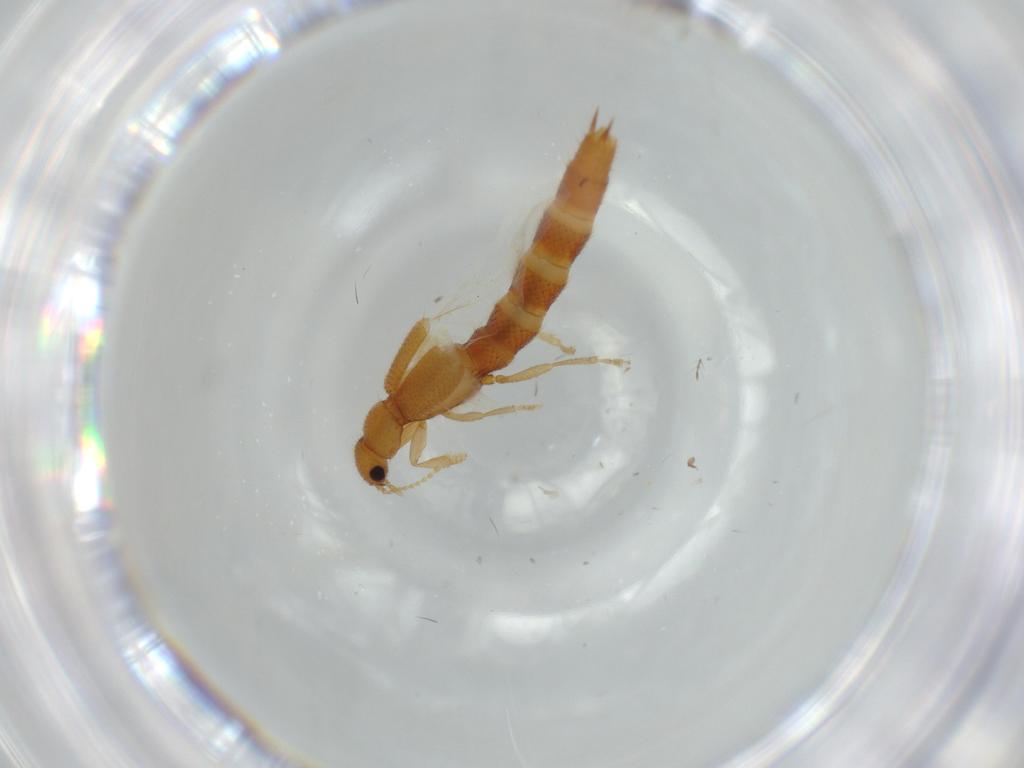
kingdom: Animalia
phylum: Arthropoda
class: Insecta
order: Coleoptera
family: Staphylinidae
